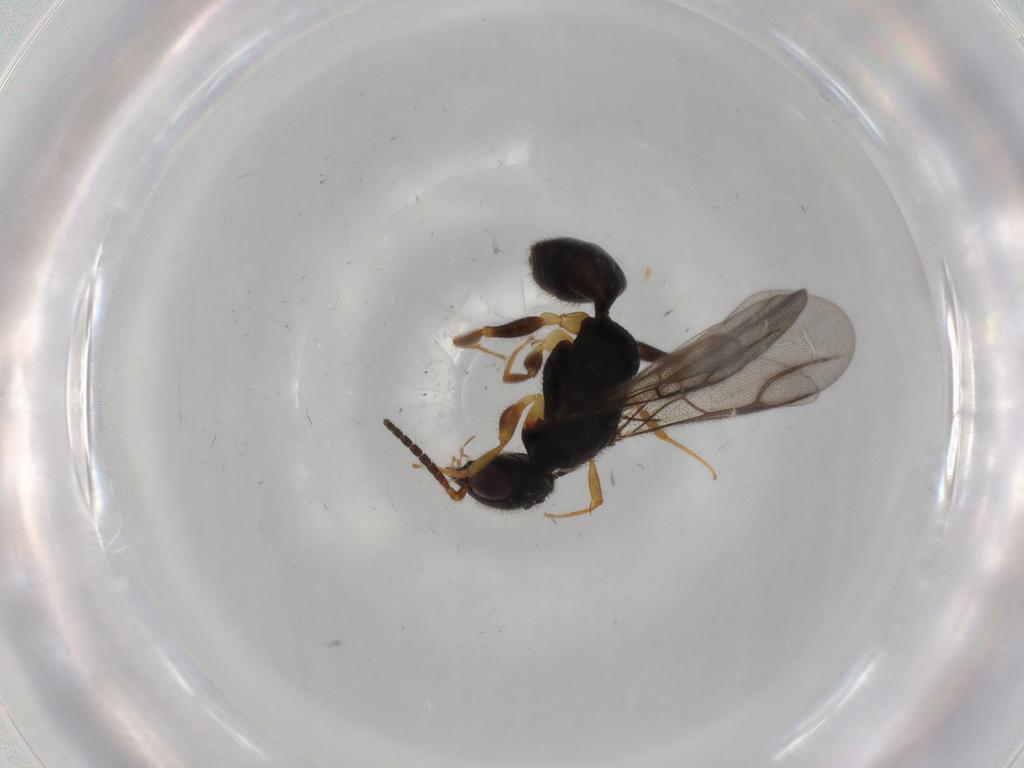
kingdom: Animalia
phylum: Arthropoda
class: Insecta
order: Hymenoptera
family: Bethylidae
